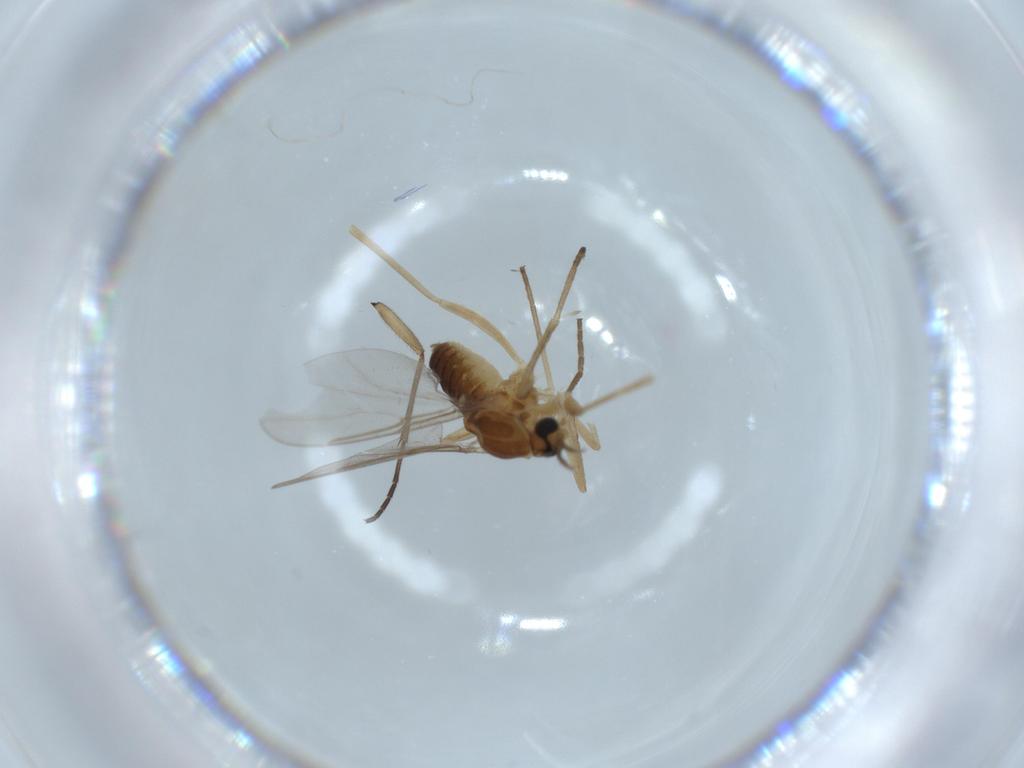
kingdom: Animalia
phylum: Arthropoda
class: Insecta
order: Diptera
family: Cecidomyiidae
